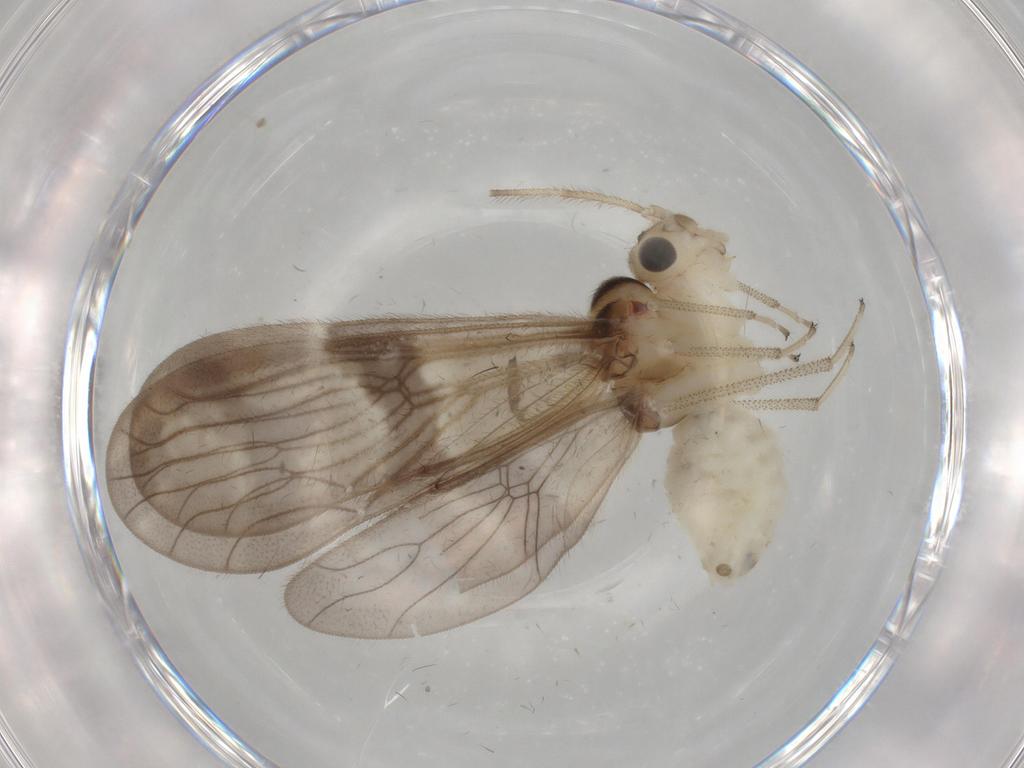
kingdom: Animalia
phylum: Arthropoda
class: Insecta
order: Psocodea
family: Amphipsocidae
